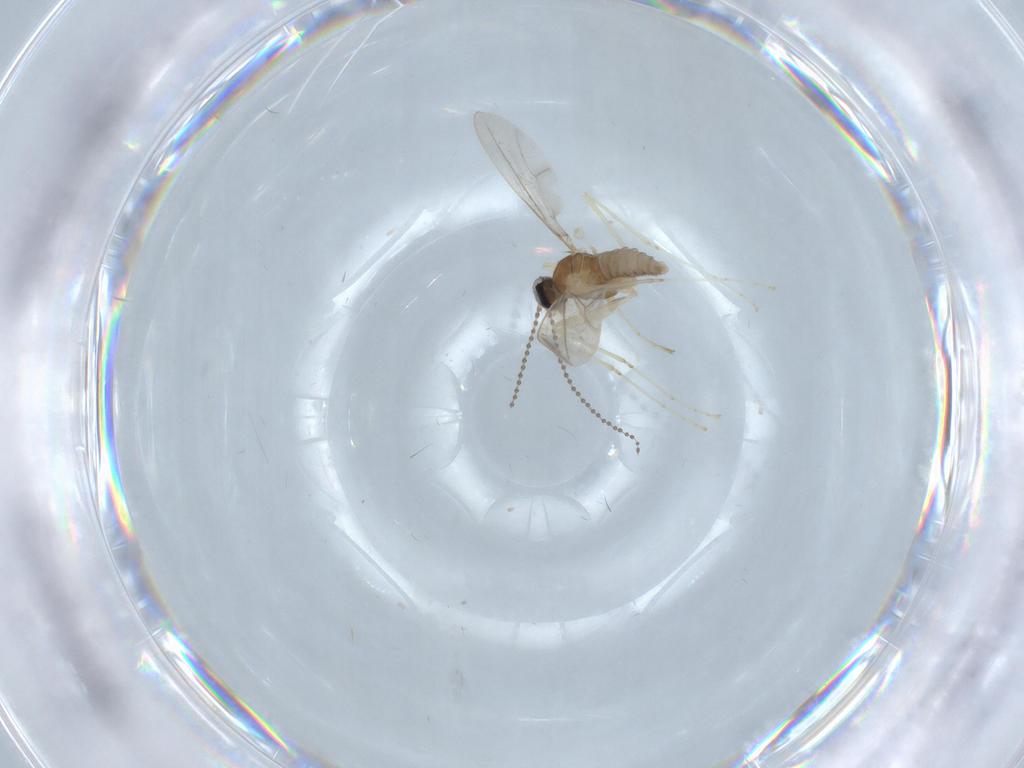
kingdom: Animalia
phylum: Arthropoda
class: Insecta
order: Diptera
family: Cecidomyiidae
